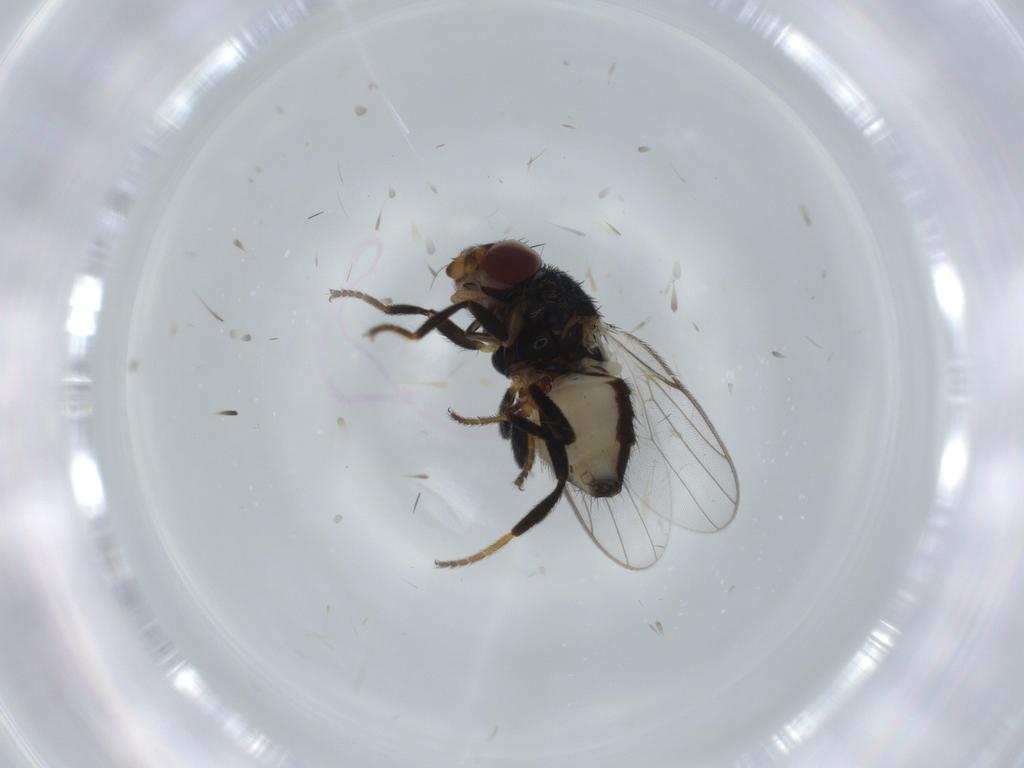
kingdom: Animalia
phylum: Arthropoda
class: Insecta
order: Diptera
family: Chloropidae
